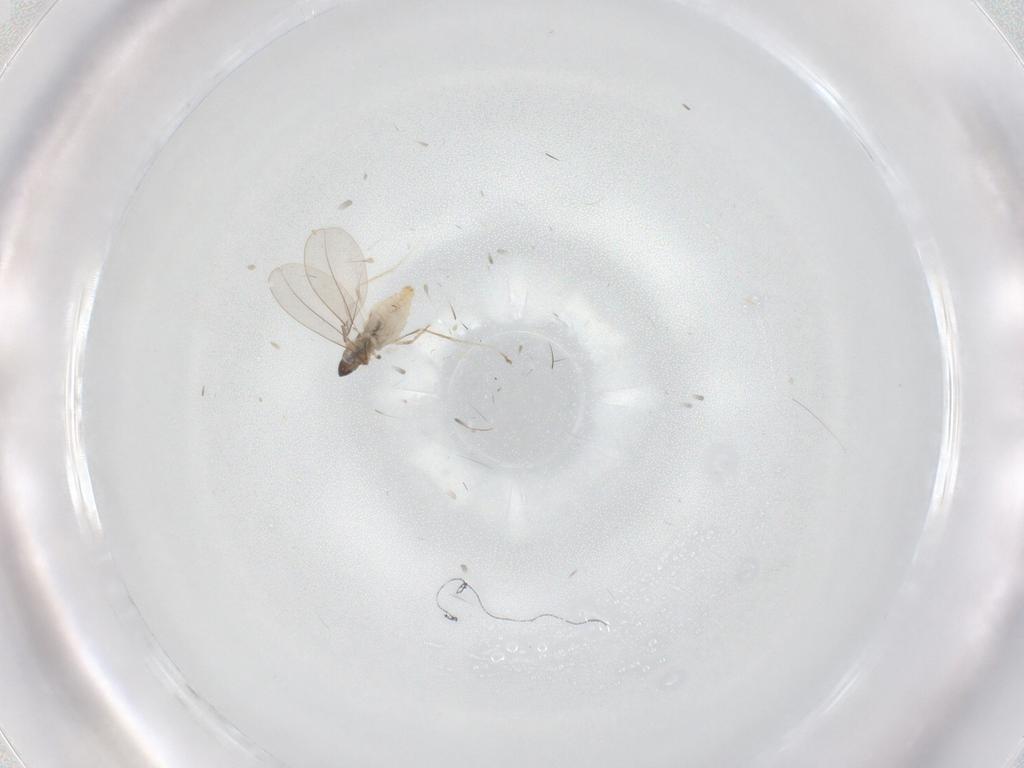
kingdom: Animalia
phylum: Arthropoda
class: Insecta
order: Diptera
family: Cecidomyiidae
